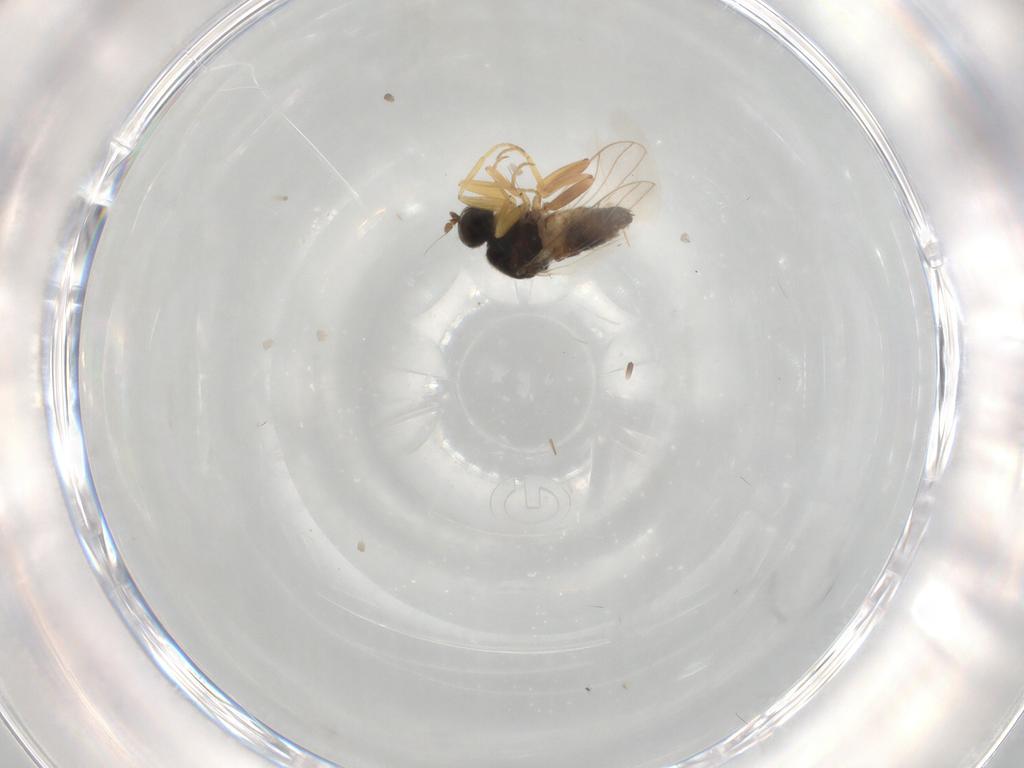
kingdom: Animalia
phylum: Arthropoda
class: Insecta
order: Diptera
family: Hybotidae
